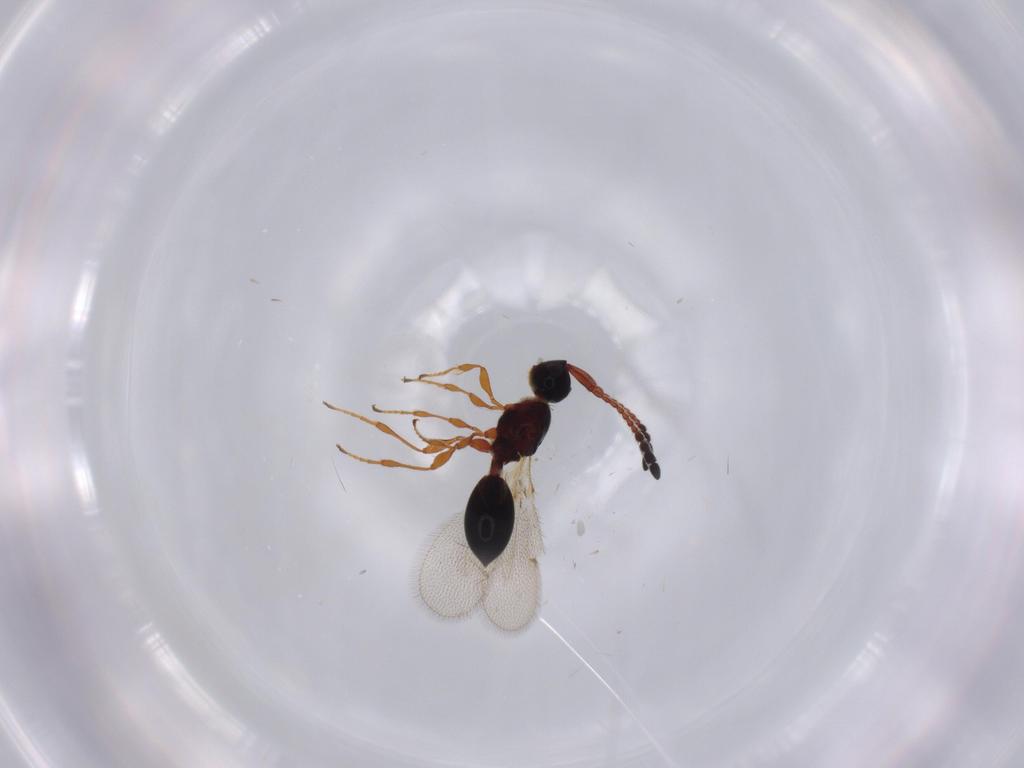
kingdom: Animalia
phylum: Arthropoda
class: Insecta
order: Hymenoptera
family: Diapriidae
